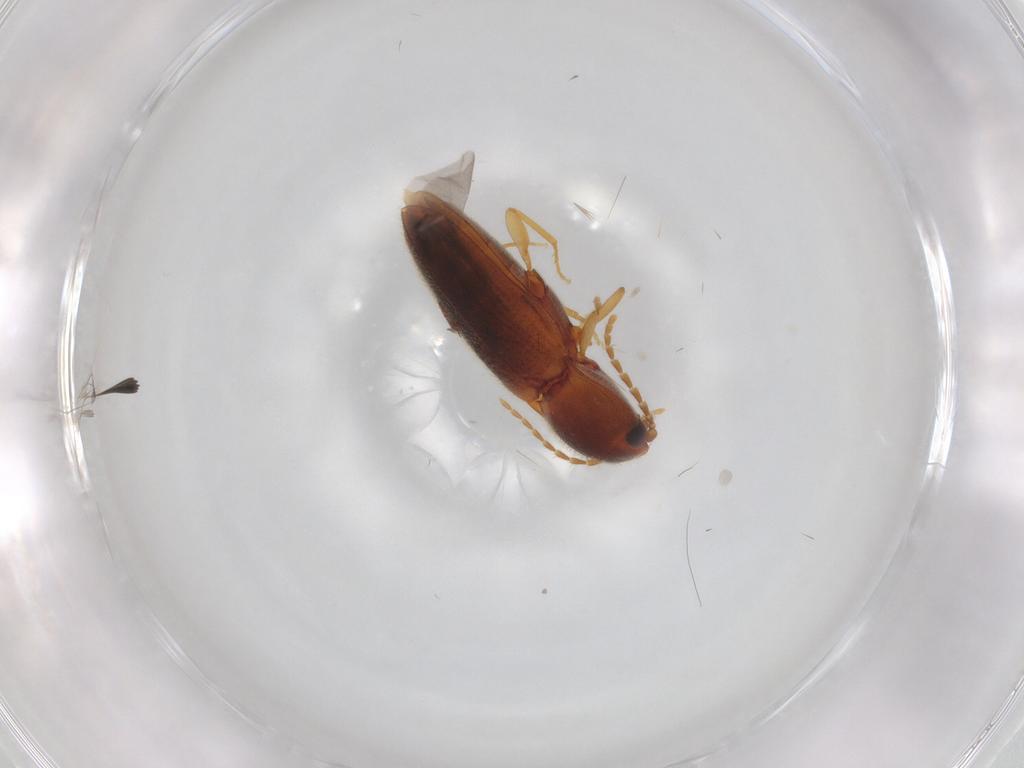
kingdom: Animalia
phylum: Arthropoda
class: Insecta
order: Coleoptera
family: Elateridae
